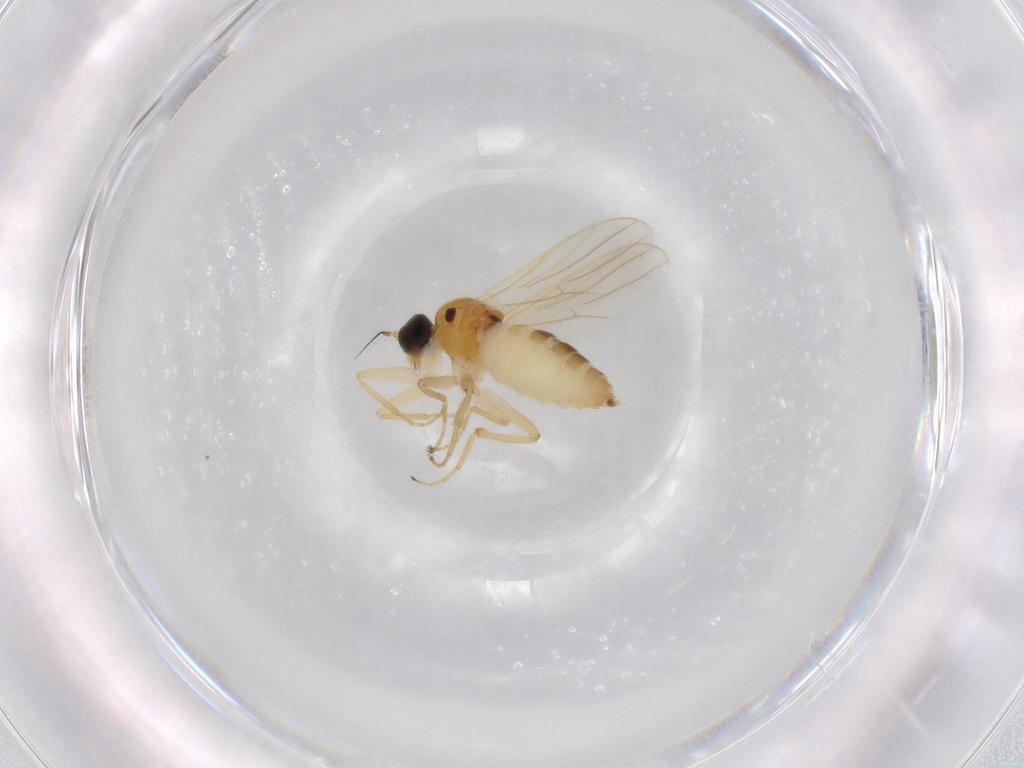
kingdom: Animalia
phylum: Arthropoda
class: Insecta
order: Diptera
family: Hybotidae
